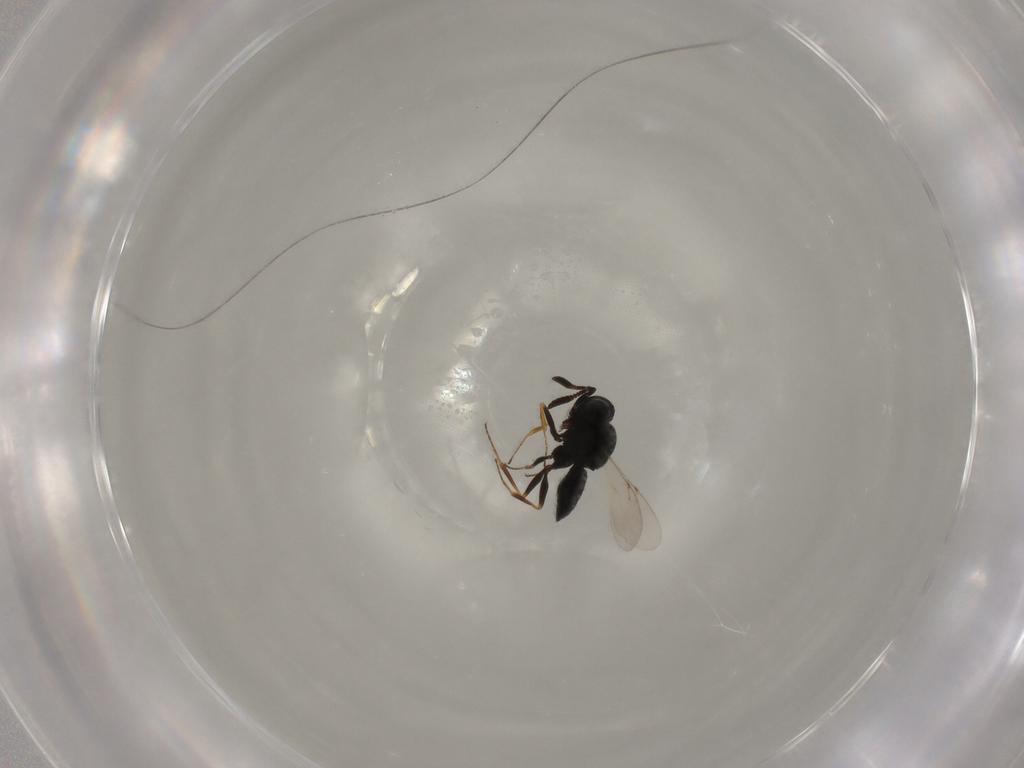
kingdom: Animalia
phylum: Arthropoda
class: Insecta
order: Hymenoptera
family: Scelionidae
